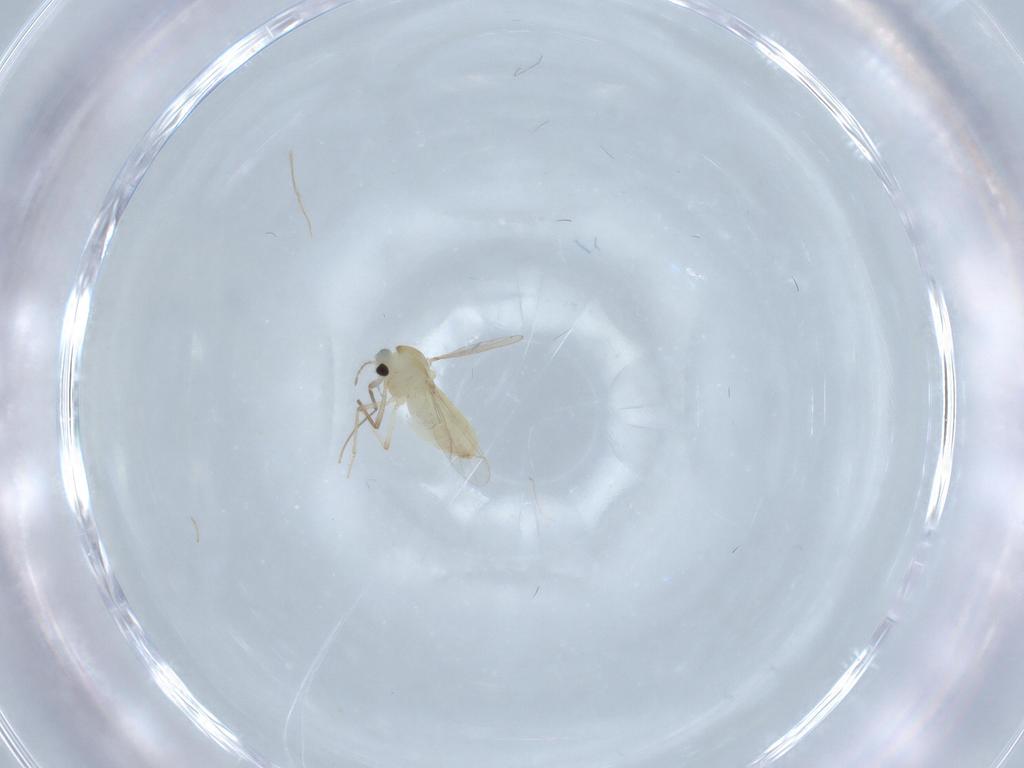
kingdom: Animalia
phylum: Arthropoda
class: Insecta
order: Diptera
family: Chironomidae
